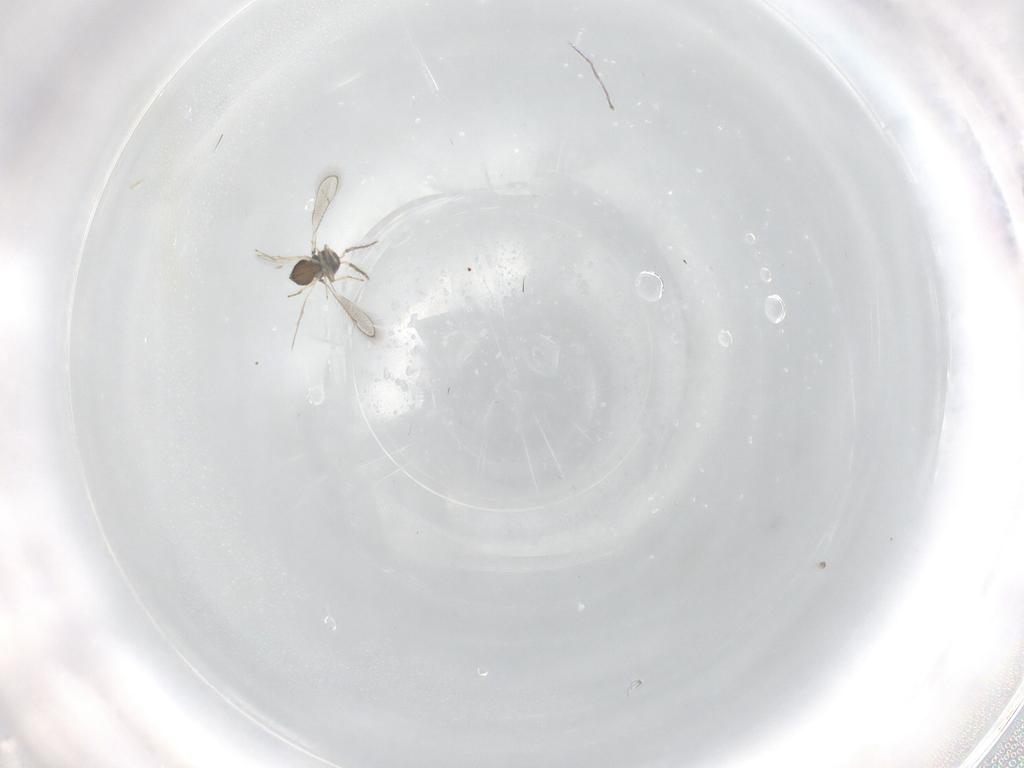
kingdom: Animalia
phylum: Arthropoda
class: Insecta
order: Hymenoptera
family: Eulophidae
